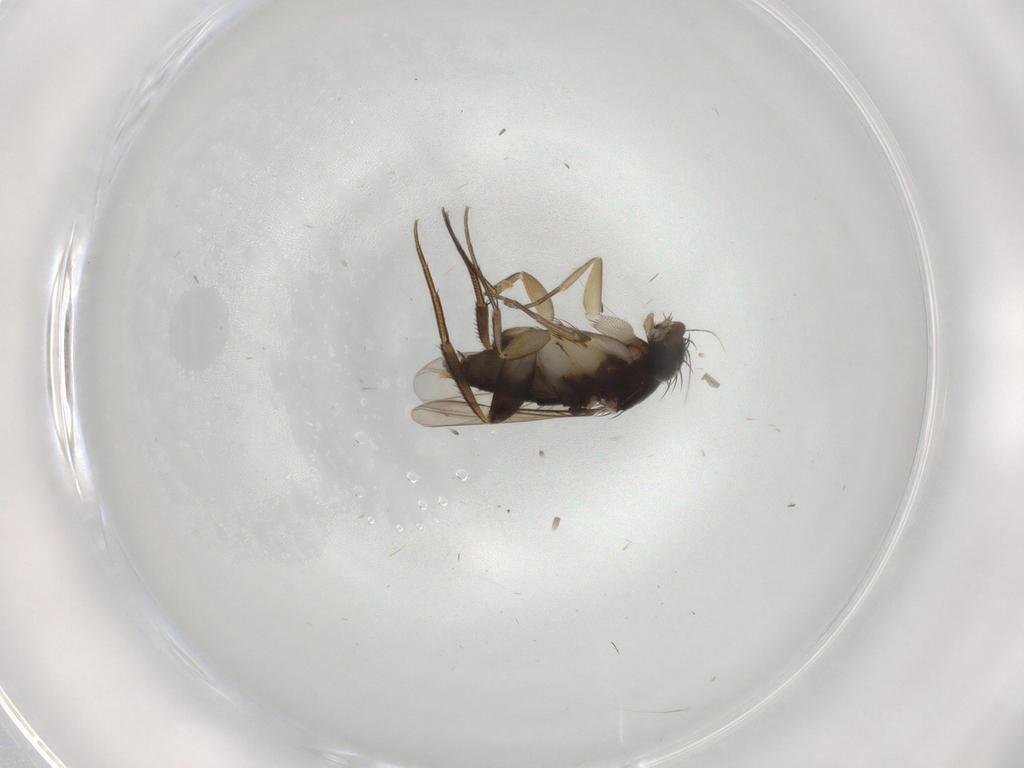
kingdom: Animalia
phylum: Arthropoda
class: Insecta
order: Diptera
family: Phoridae
